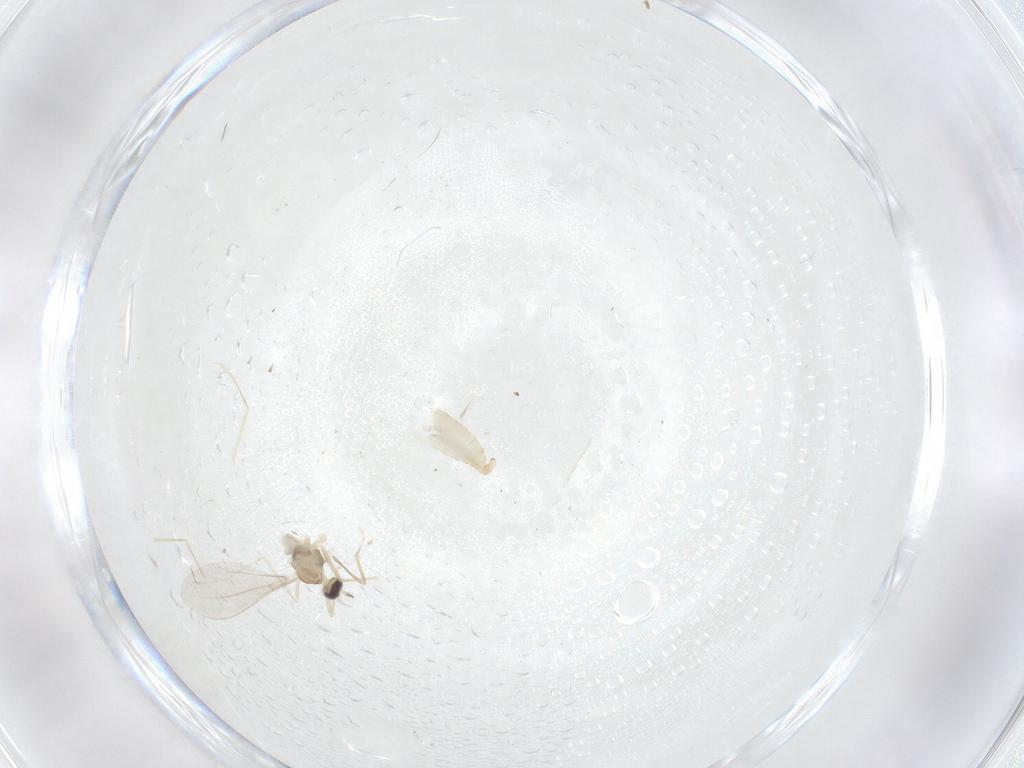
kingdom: Animalia
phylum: Arthropoda
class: Insecta
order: Diptera
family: Cecidomyiidae
